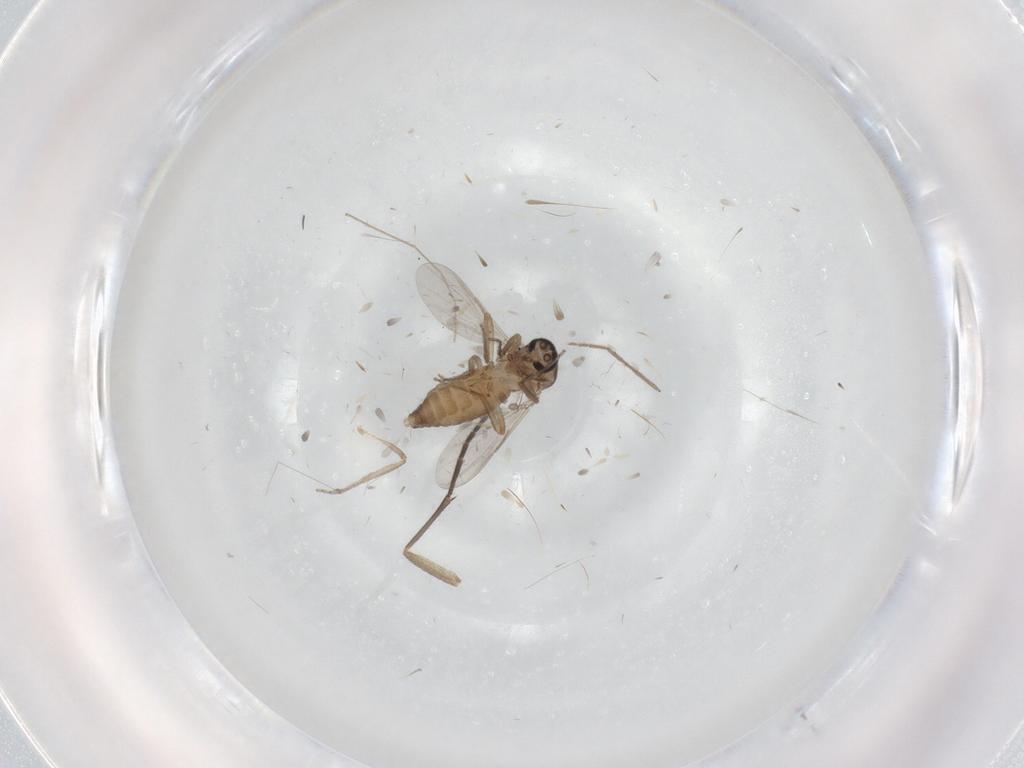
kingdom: Animalia
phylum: Arthropoda
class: Insecta
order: Diptera
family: Ceratopogonidae
